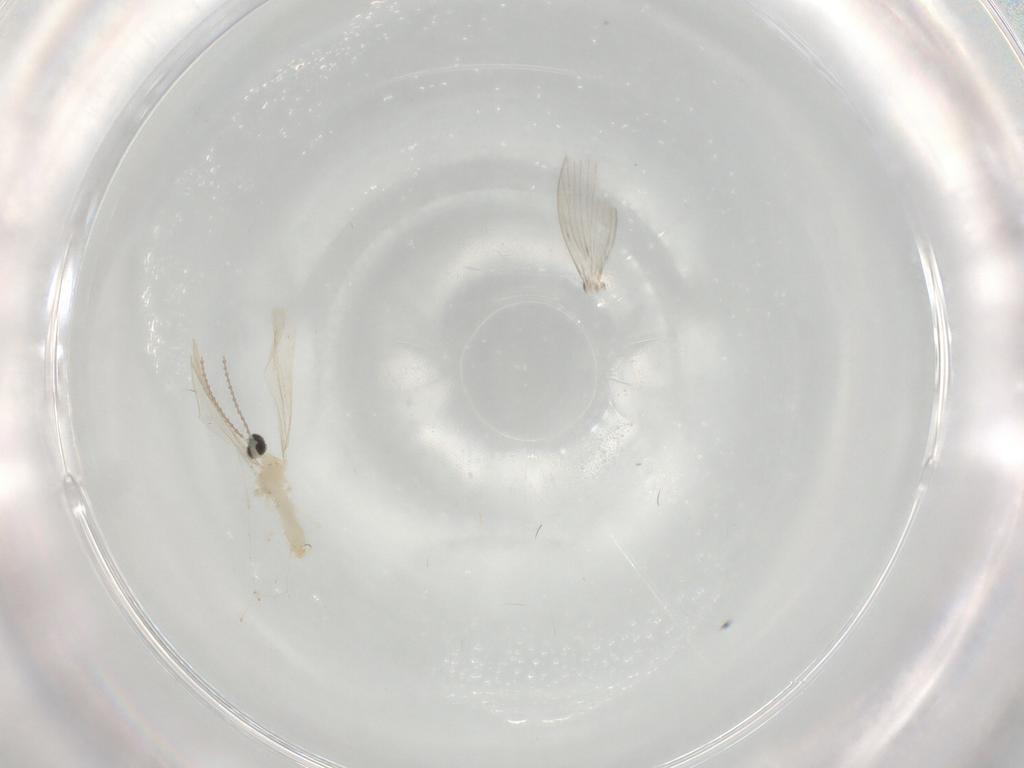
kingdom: Animalia
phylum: Arthropoda
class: Insecta
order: Diptera
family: Cecidomyiidae
